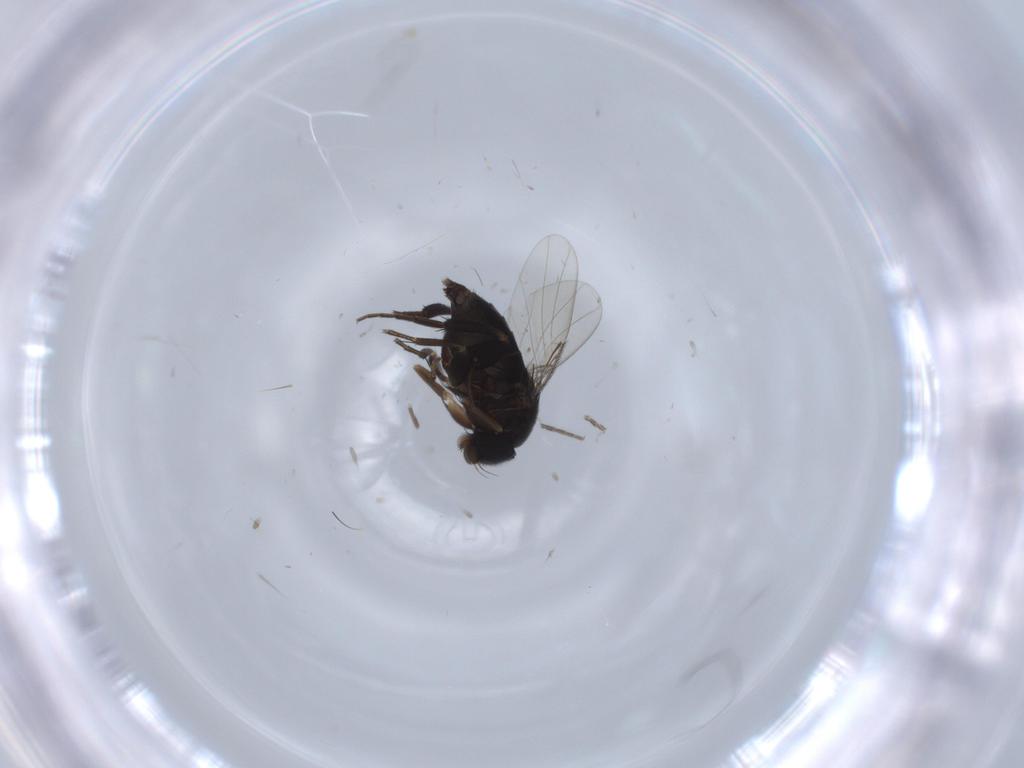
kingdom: Animalia
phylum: Arthropoda
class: Insecta
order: Diptera
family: Phoridae
